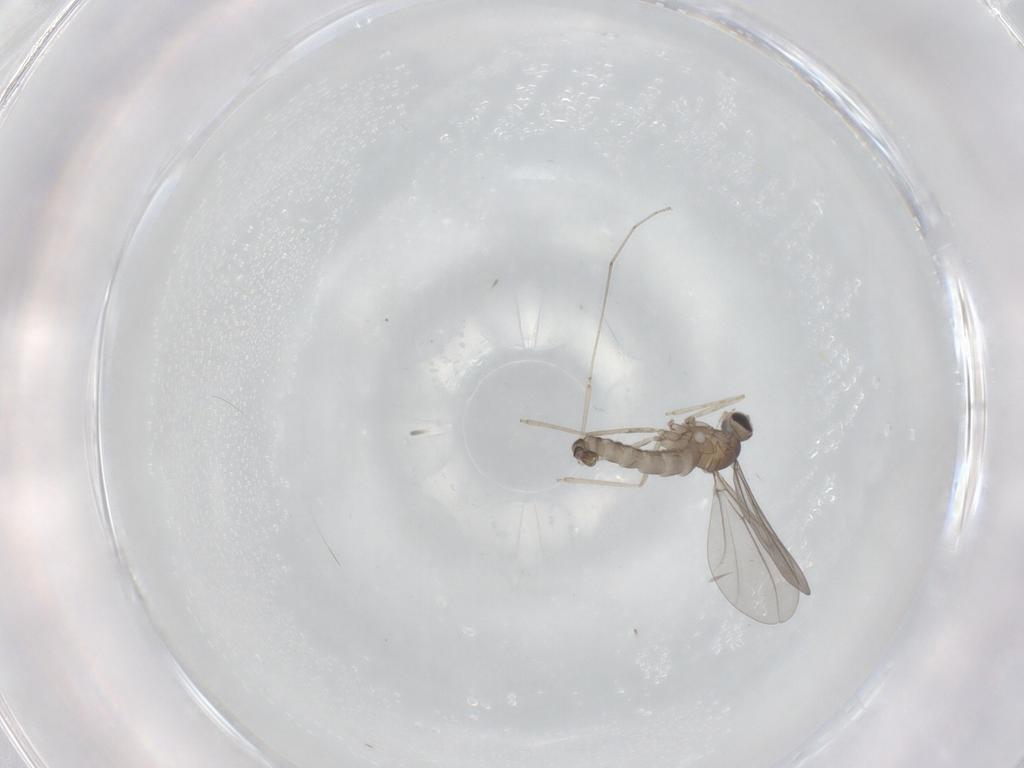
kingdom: Animalia
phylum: Arthropoda
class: Insecta
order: Diptera
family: Cecidomyiidae
